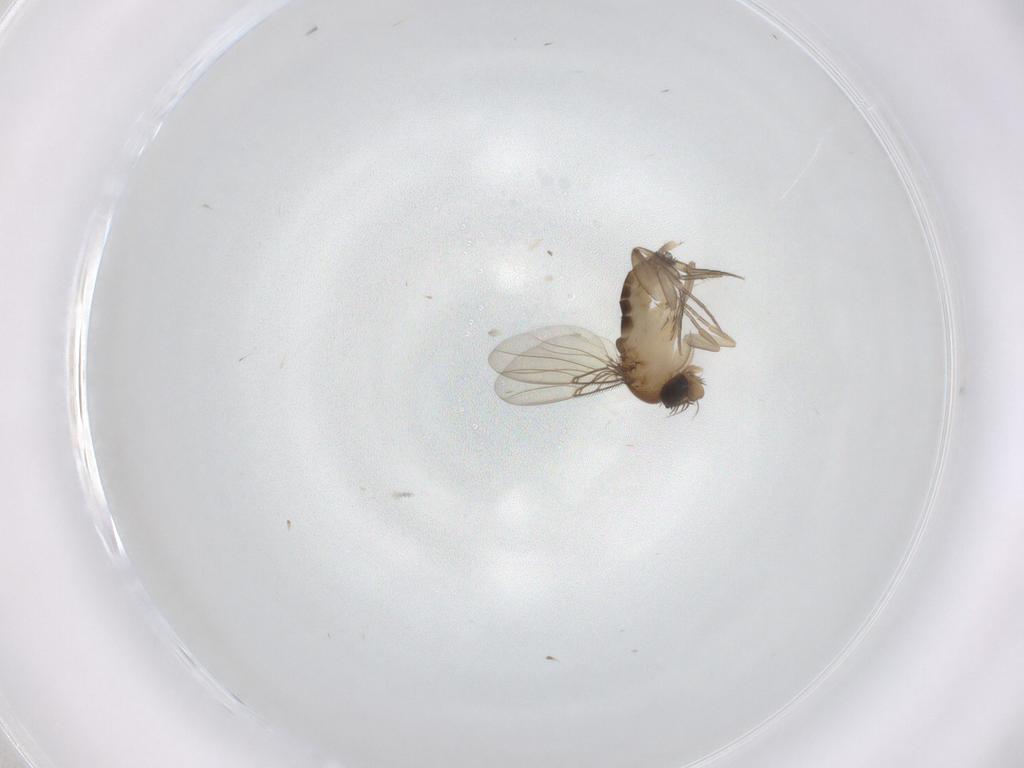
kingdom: Animalia
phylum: Arthropoda
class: Insecta
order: Diptera
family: Phoridae
